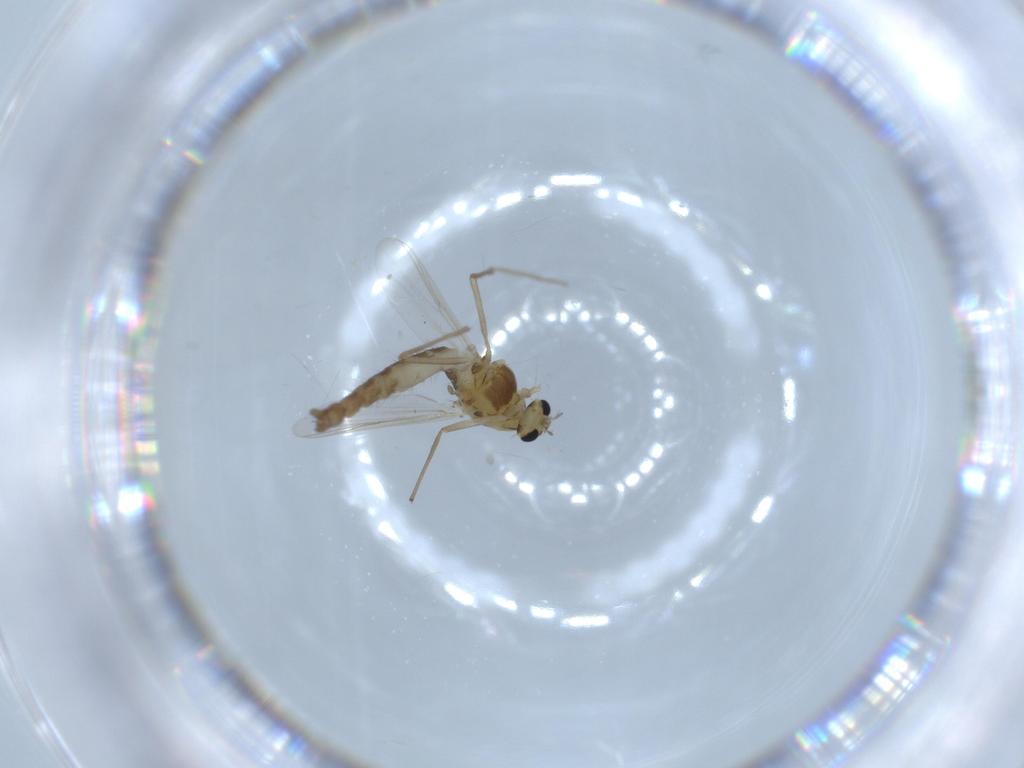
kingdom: Animalia
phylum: Arthropoda
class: Insecta
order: Diptera
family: Chironomidae
